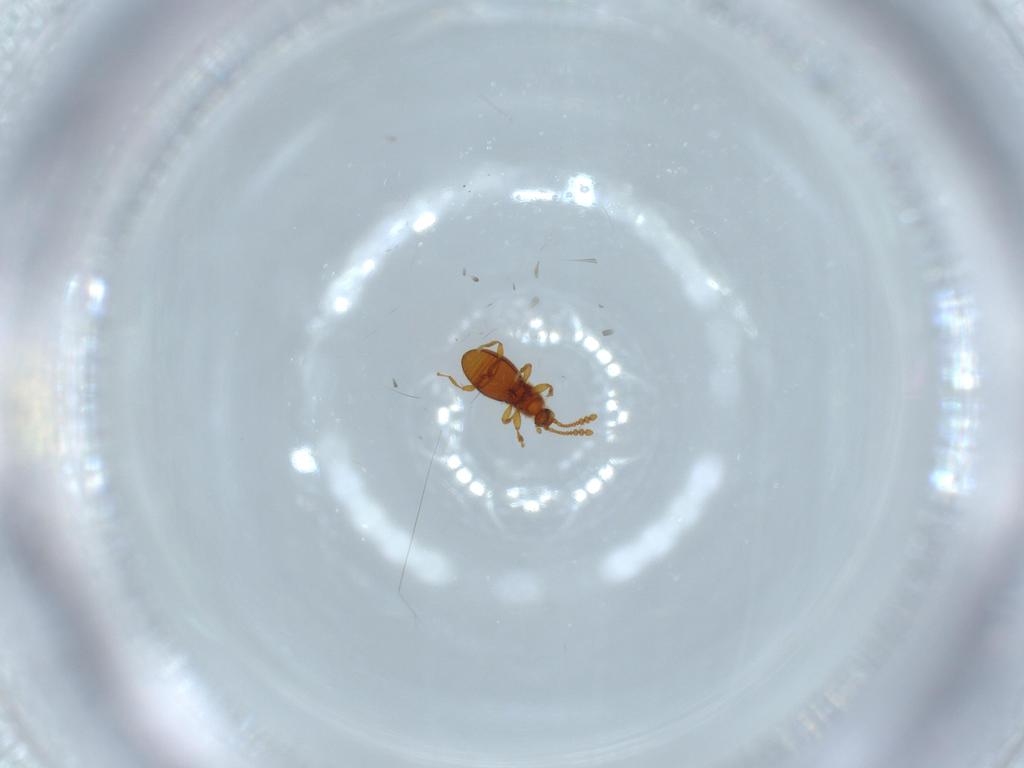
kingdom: Animalia
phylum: Arthropoda
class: Insecta
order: Coleoptera
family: Staphylinidae
